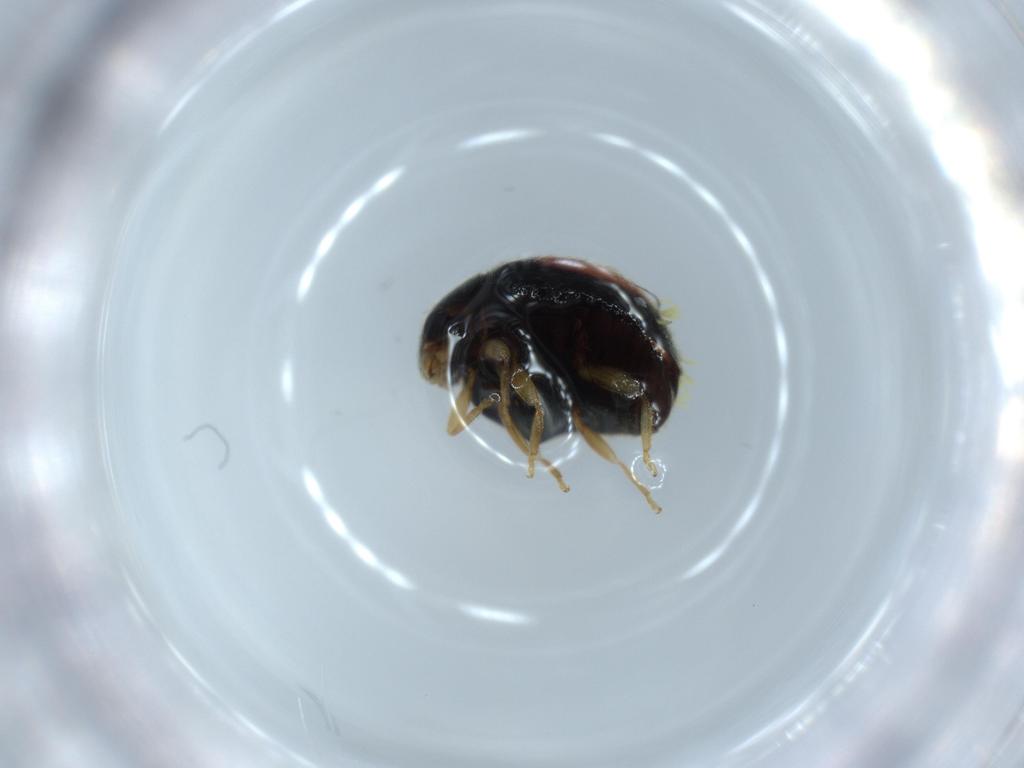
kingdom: Animalia
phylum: Arthropoda
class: Insecta
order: Coleoptera
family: Coccinellidae
